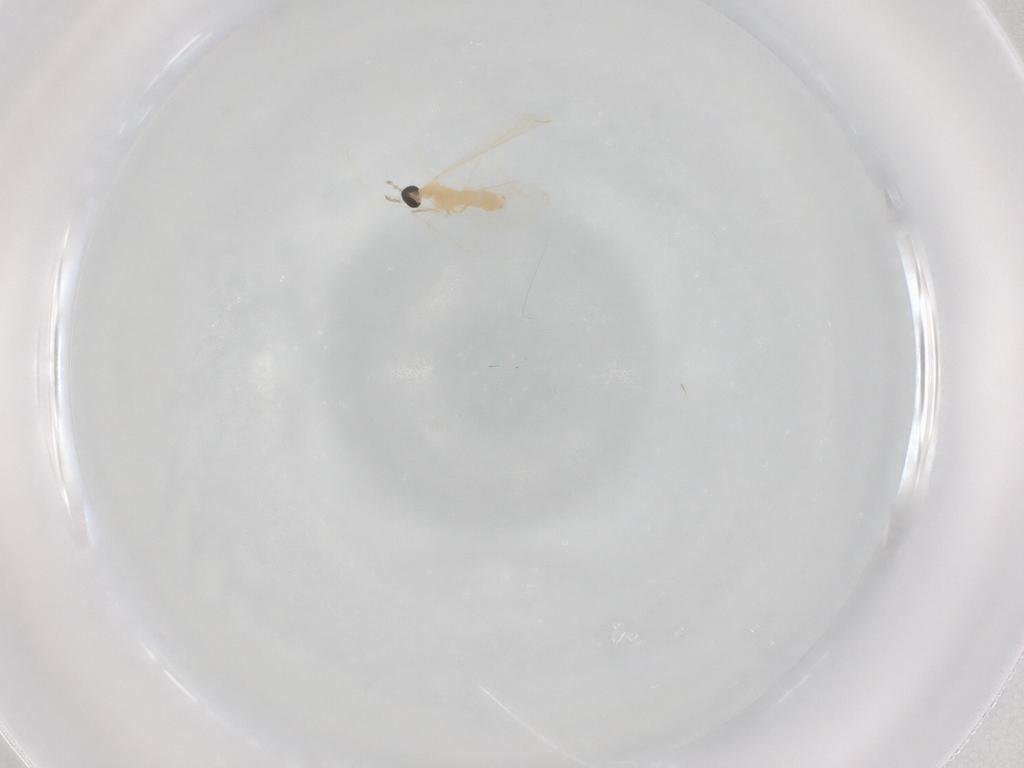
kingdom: Animalia
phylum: Arthropoda
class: Insecta
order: Diptera
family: Cecidomyiidae
